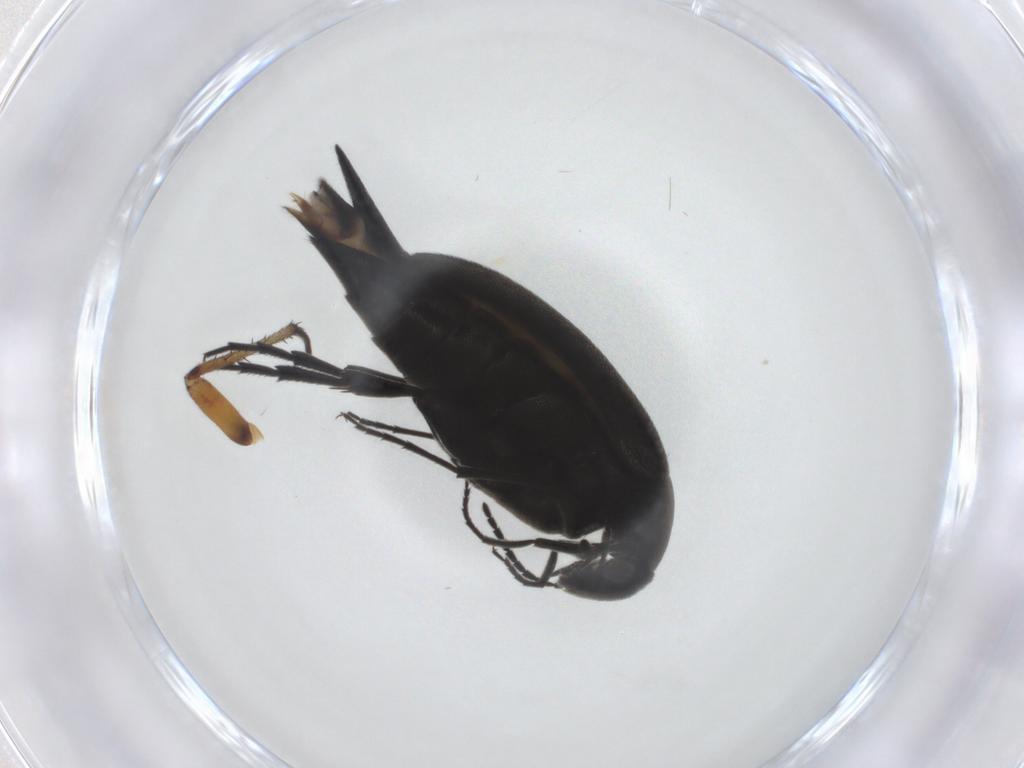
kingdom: Animalia
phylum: Arthropoda
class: Insecta
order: Coleoptera
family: Mordellidae
